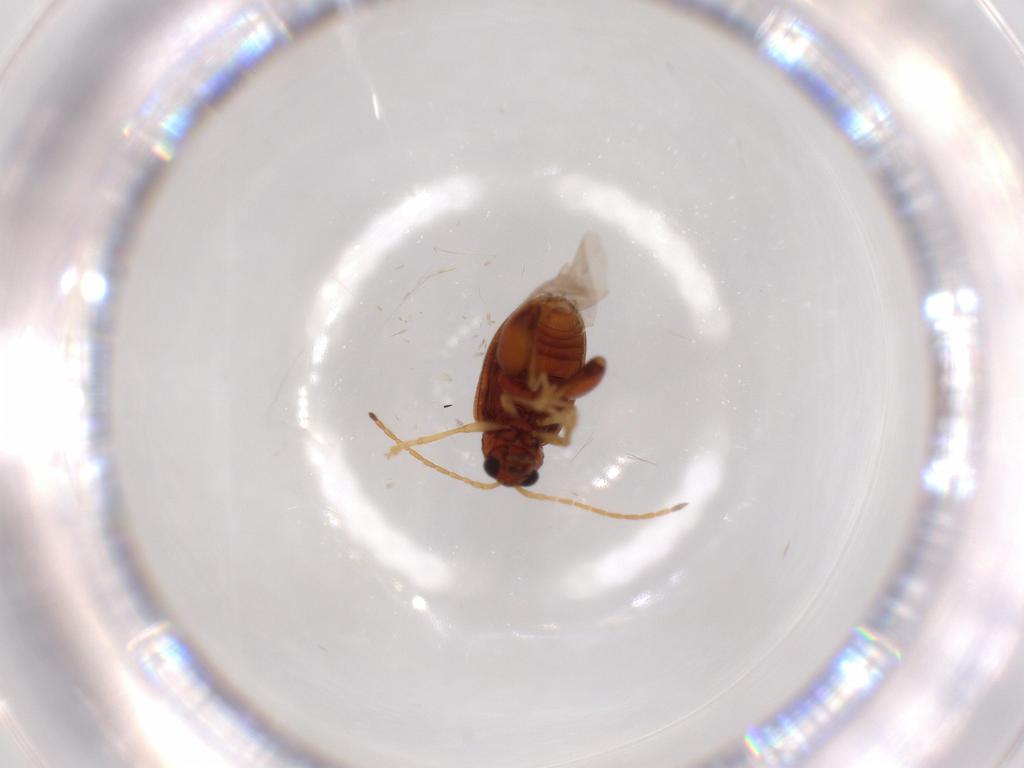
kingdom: Animalia
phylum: Arthropoda
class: Insecta
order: Coleoptera
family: Chrysomelidae
